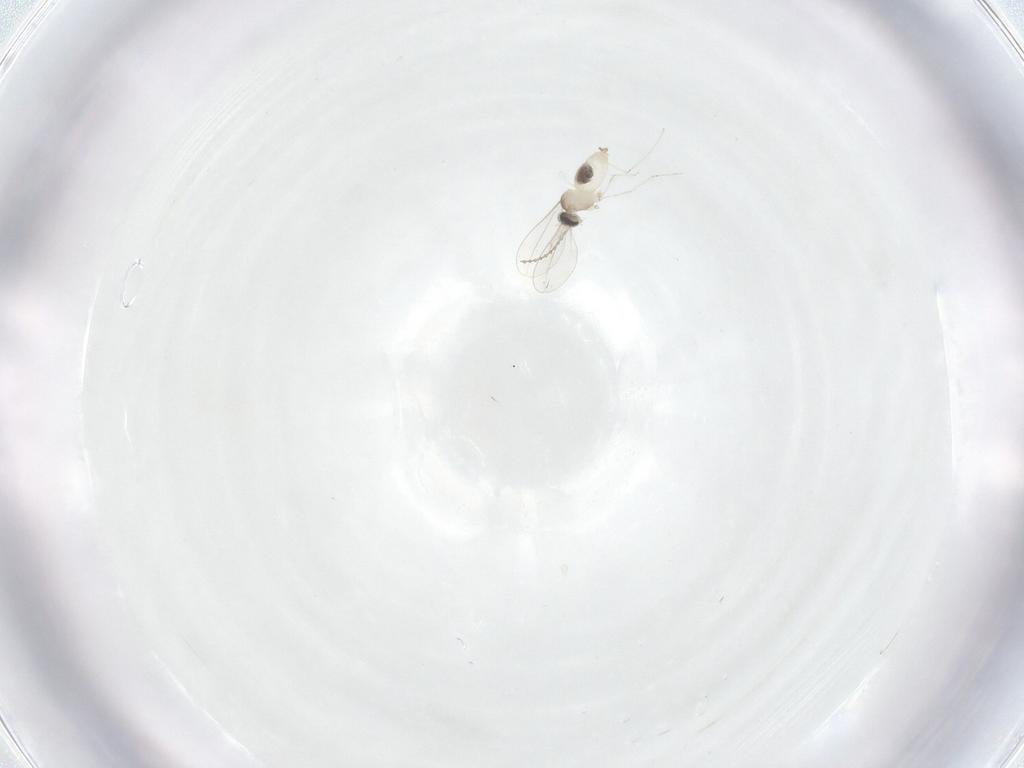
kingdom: Animalia
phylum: Arthropoda
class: Insecta
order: Diptera
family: Cecidomyiidae
